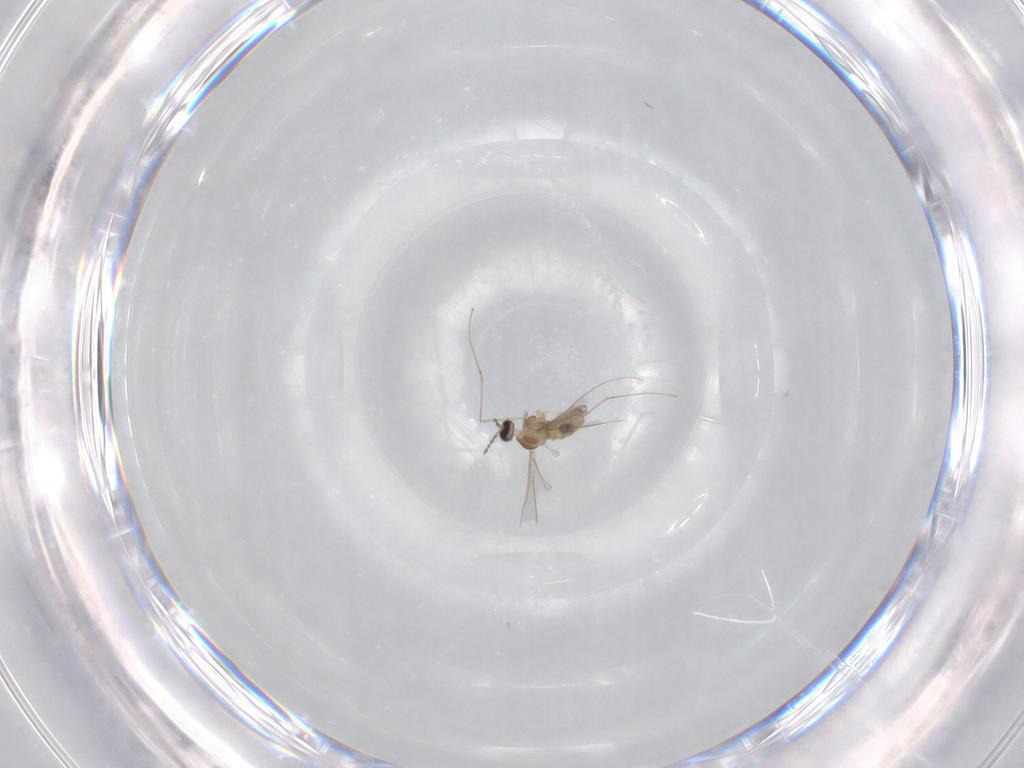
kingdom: Animalia
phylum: Arthropoda
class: Insecta
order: Diptera
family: Cecidomyiidae
